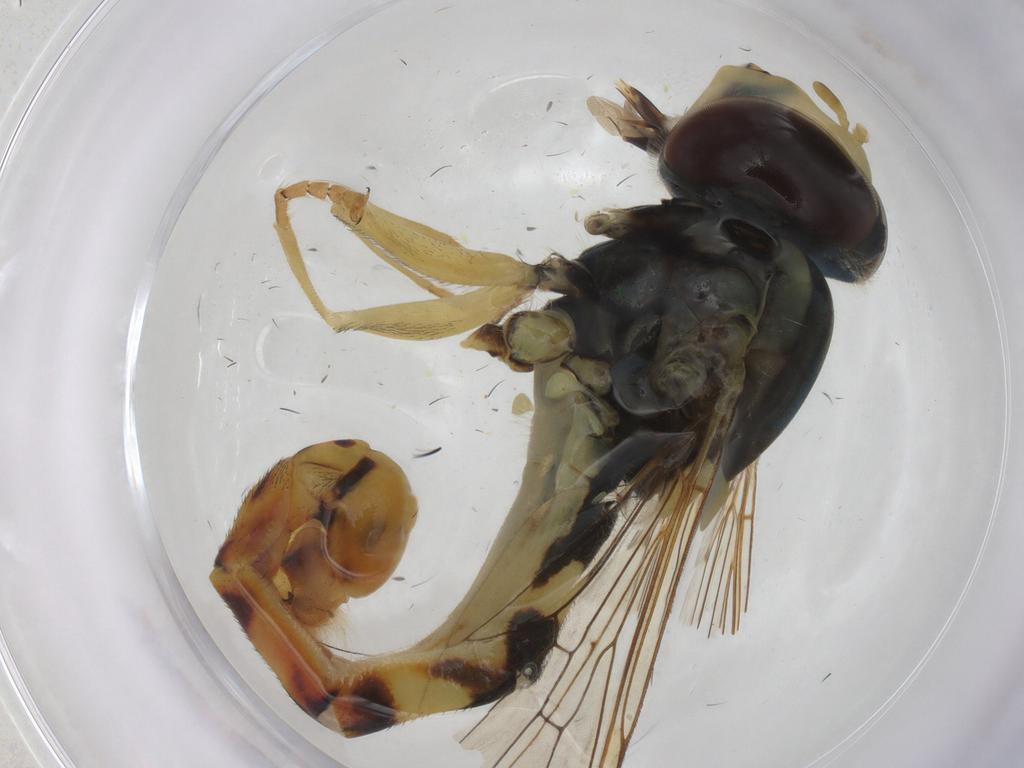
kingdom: Animalia
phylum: Arthropoda
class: Insecta
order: Diptera
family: Syrphidae
